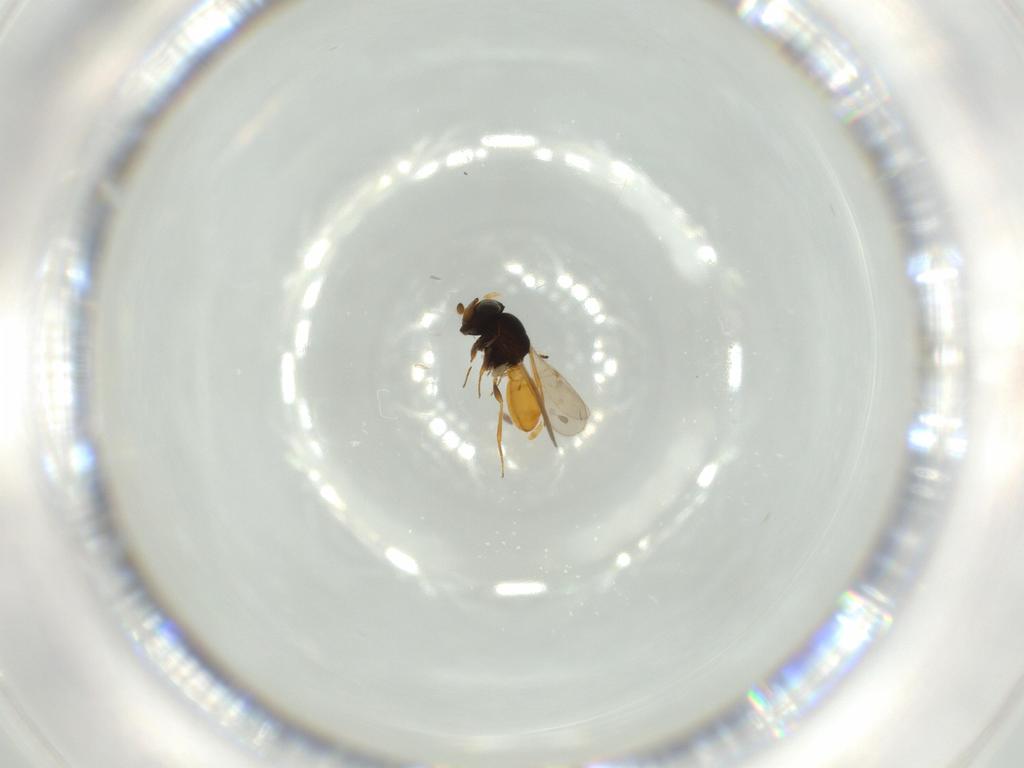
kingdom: Animalia
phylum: Arthropoda
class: Insecta
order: Hymenoptera
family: Scelionidae
